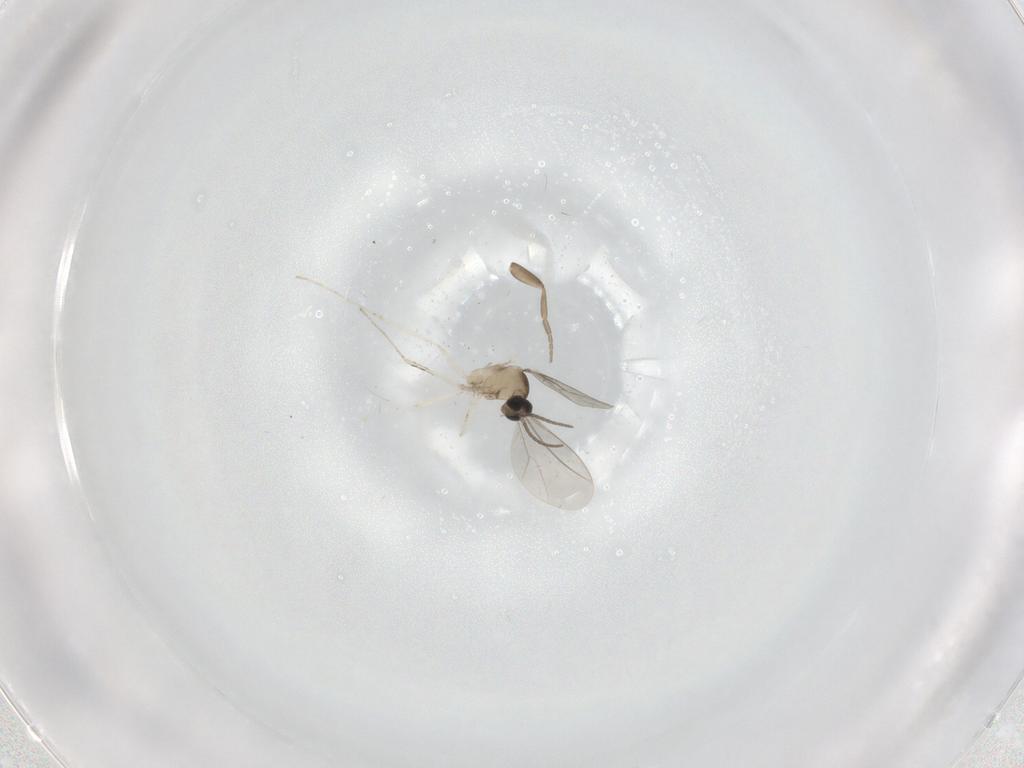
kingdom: Animalia
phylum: Arthropoda
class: Insecta
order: Diptera
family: Cecidomyiidae
